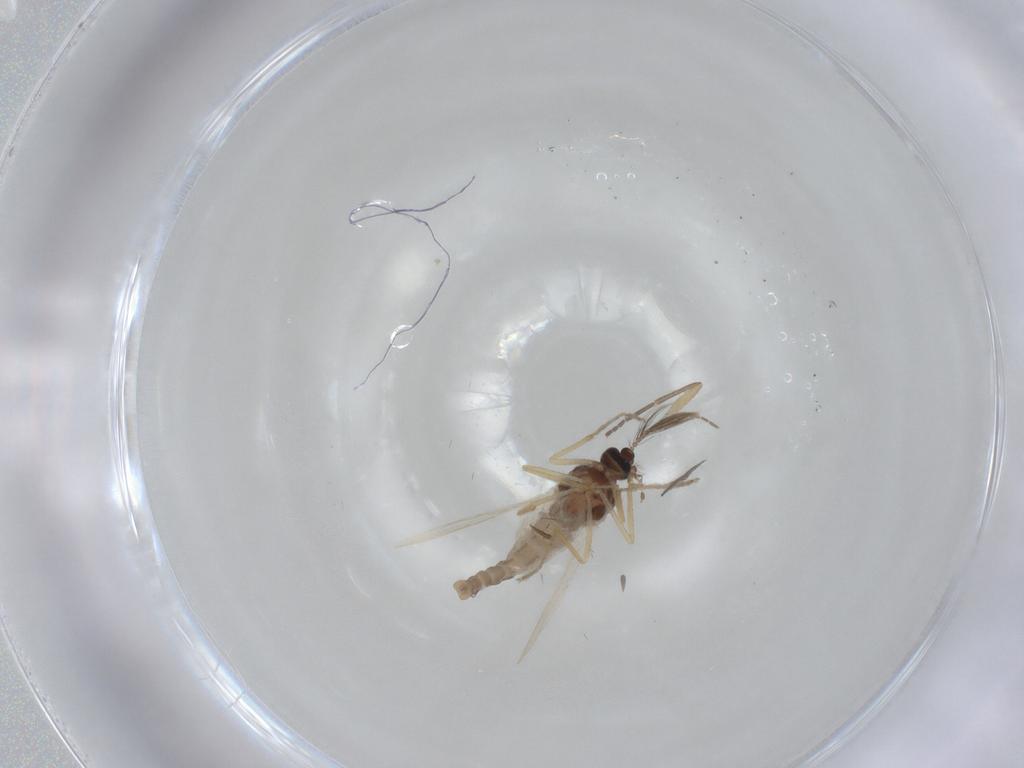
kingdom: Animalia
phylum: Arthropoda
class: Insecta
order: Diptera
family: Ceratopogonidae
